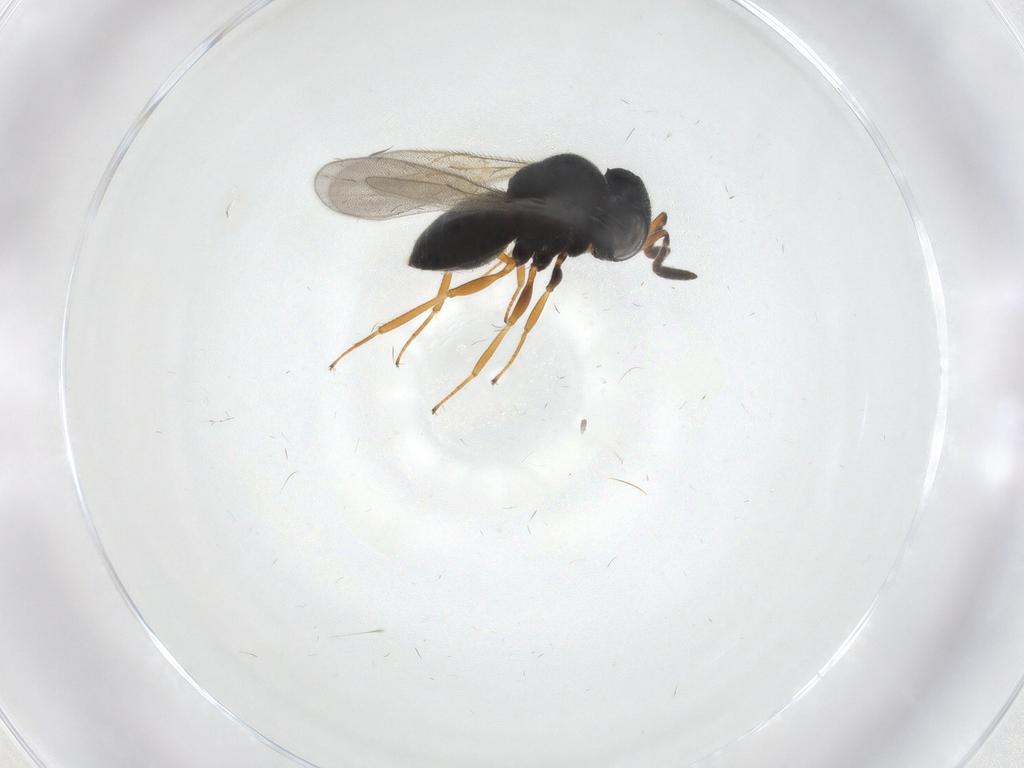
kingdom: Animalia
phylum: Arthropoda
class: Insecta
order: Hymenoptera
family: Scelionidae
